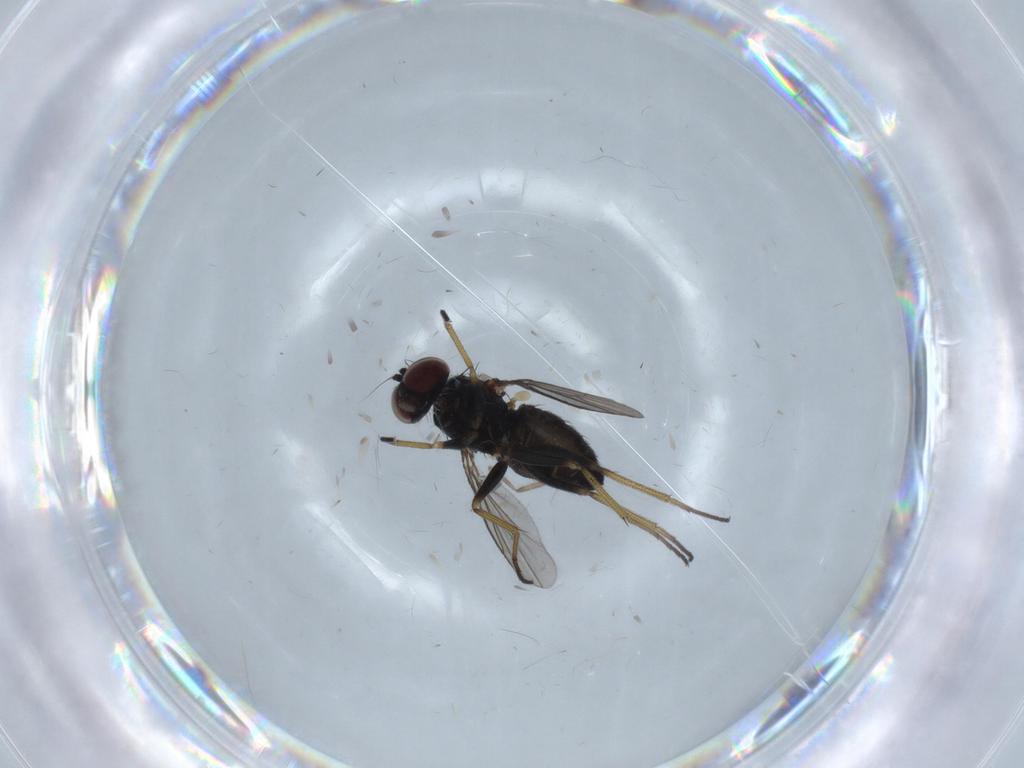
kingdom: Animalia
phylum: Arthropoda
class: Insecta
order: Diptera
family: Dolichopodidae
